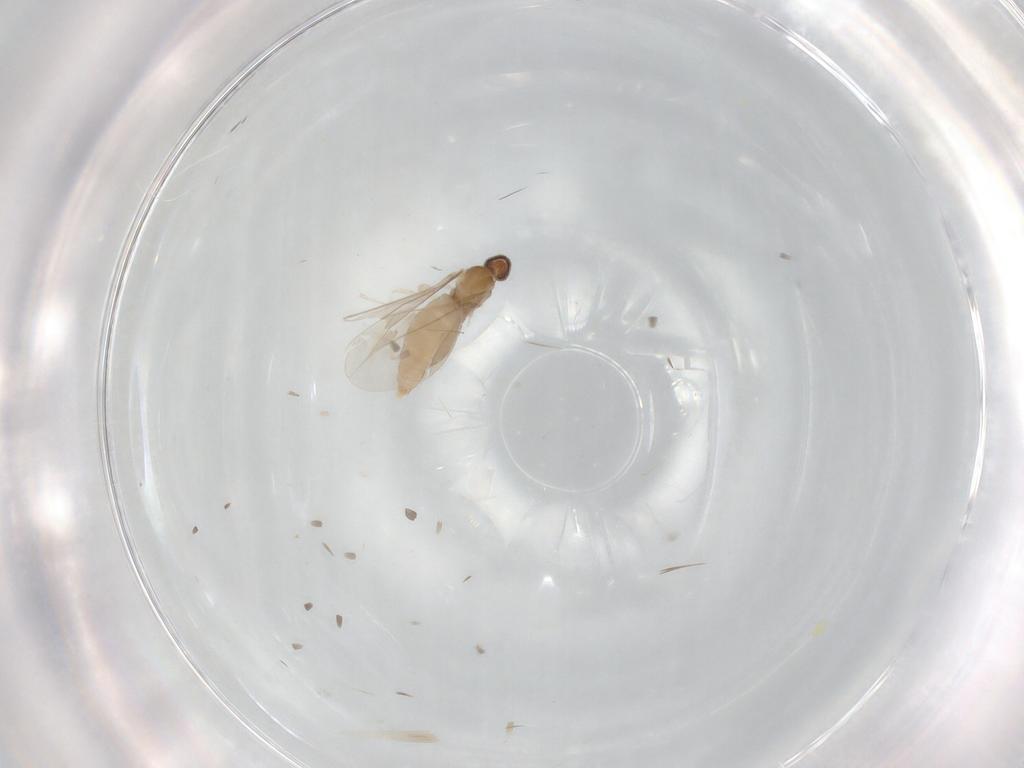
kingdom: Animalia
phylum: Arthropoda
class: Insecta
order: Diptera
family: Cecidomyiidae
